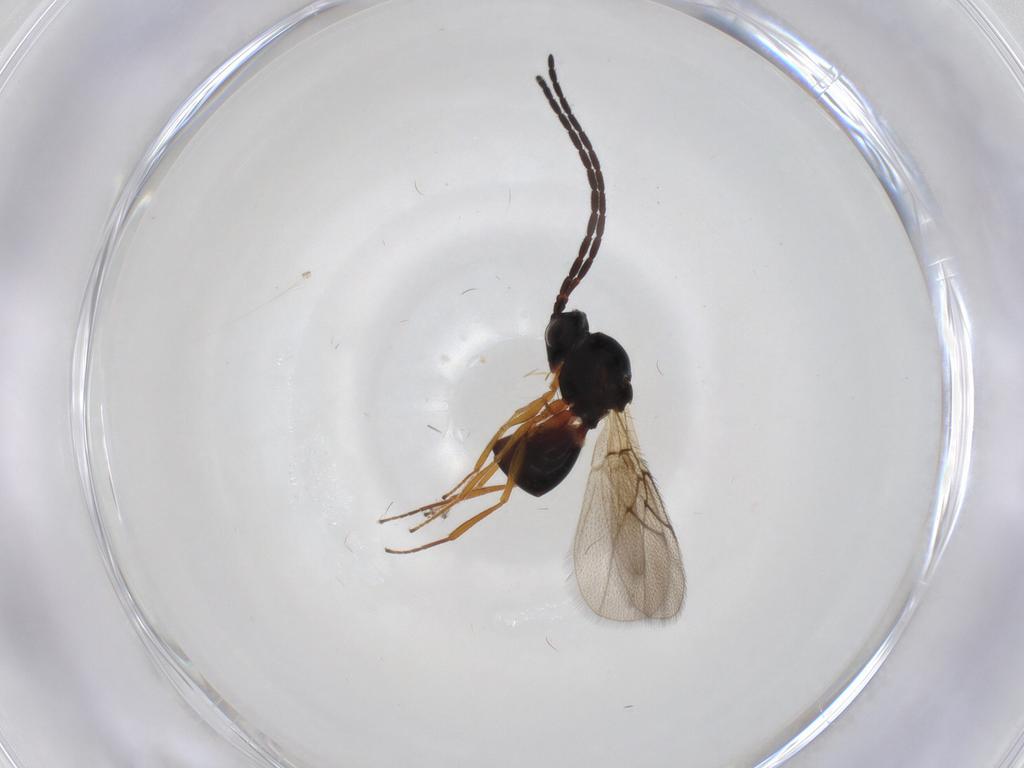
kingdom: Animalia
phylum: Arthropoda
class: Insecta
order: Hymenoptera
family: Figitidae
